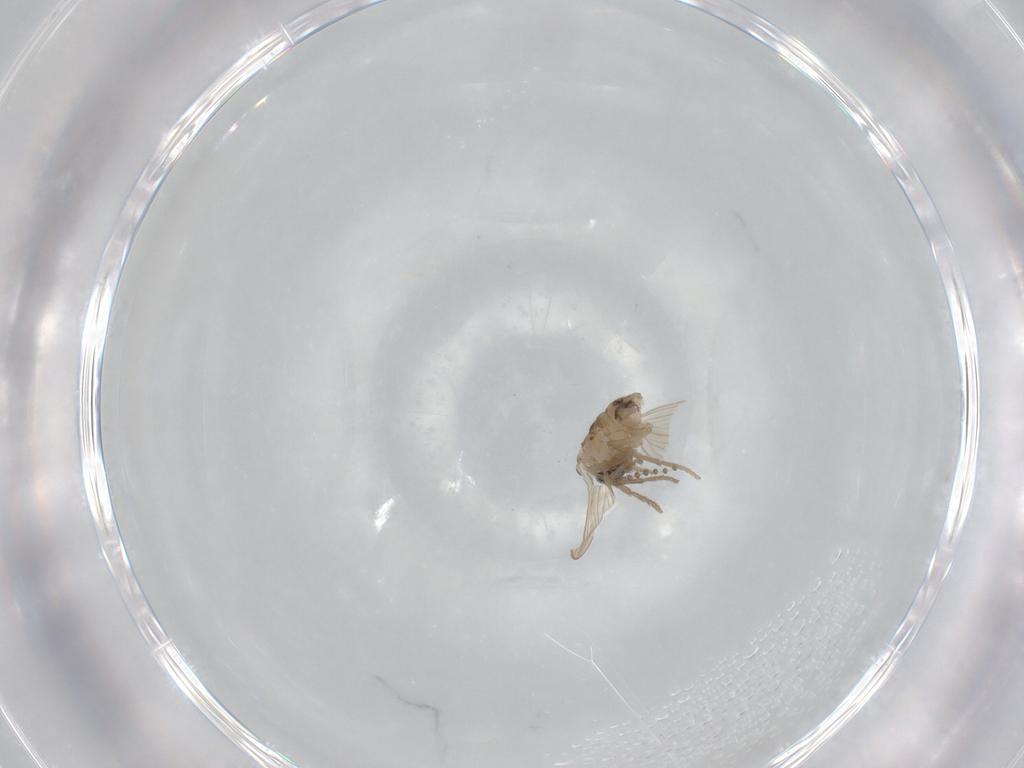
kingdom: Animalia
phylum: Arthropoda
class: Insecta
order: Diptera
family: Psychodidae
